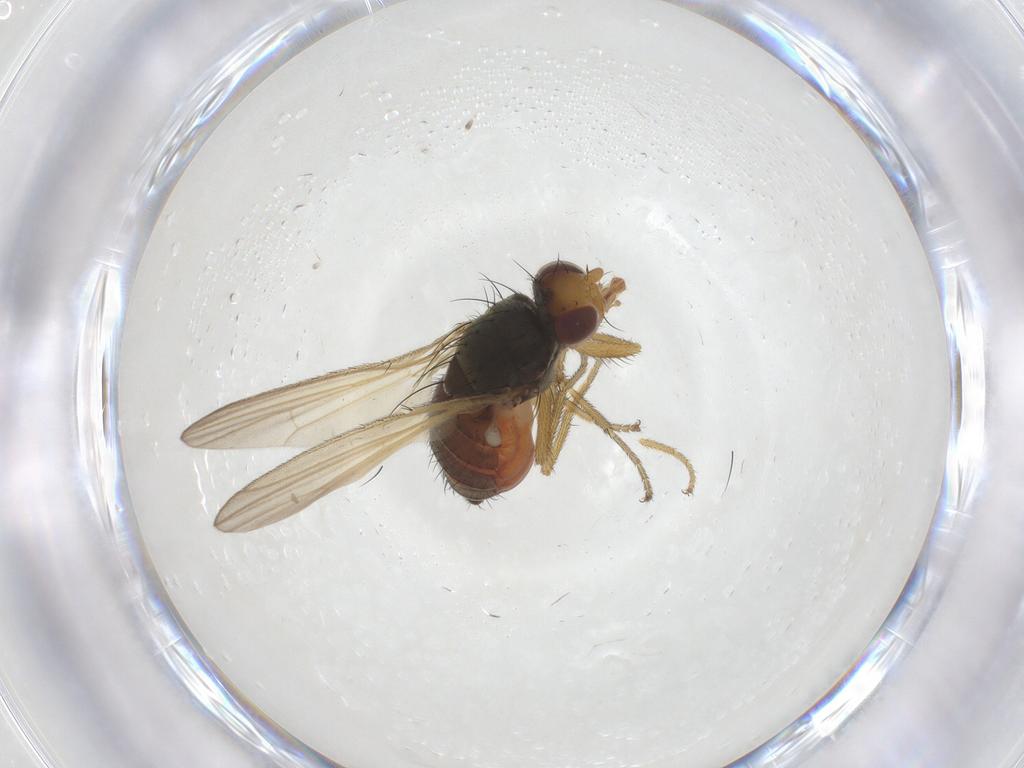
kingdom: Animalia
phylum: Arthropoda
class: Insecta
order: Diptera
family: Heleomyzidae
